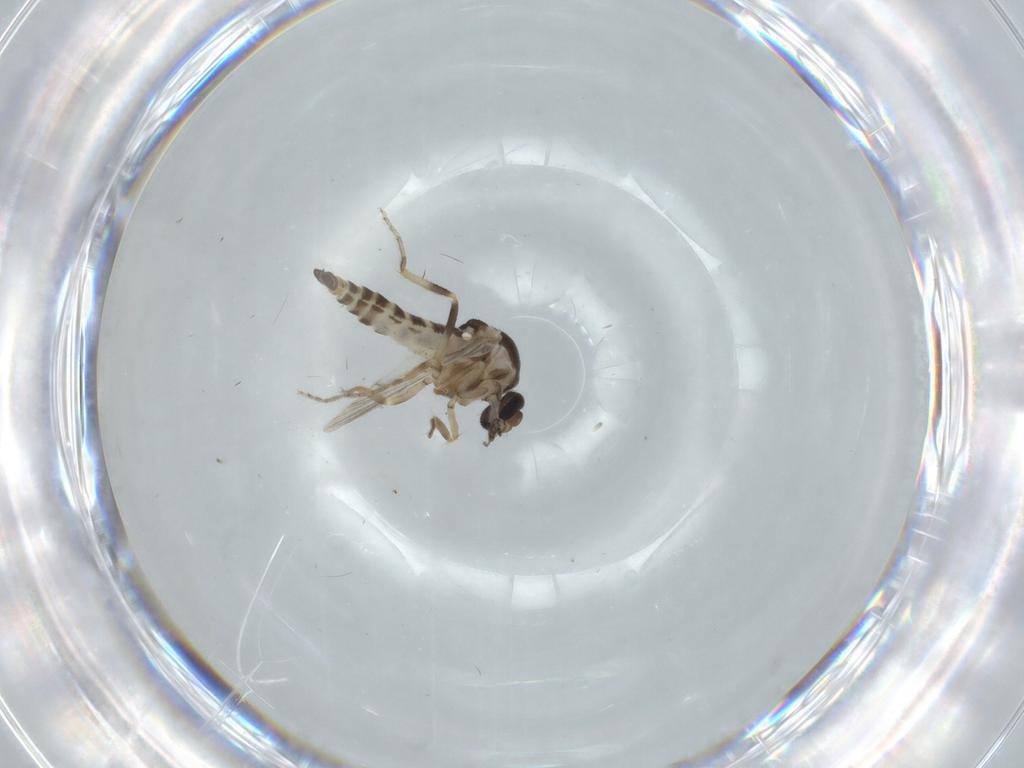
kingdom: Animalia
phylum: Arthropoda
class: Insecta
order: Diptera
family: Ceratopogonidae
